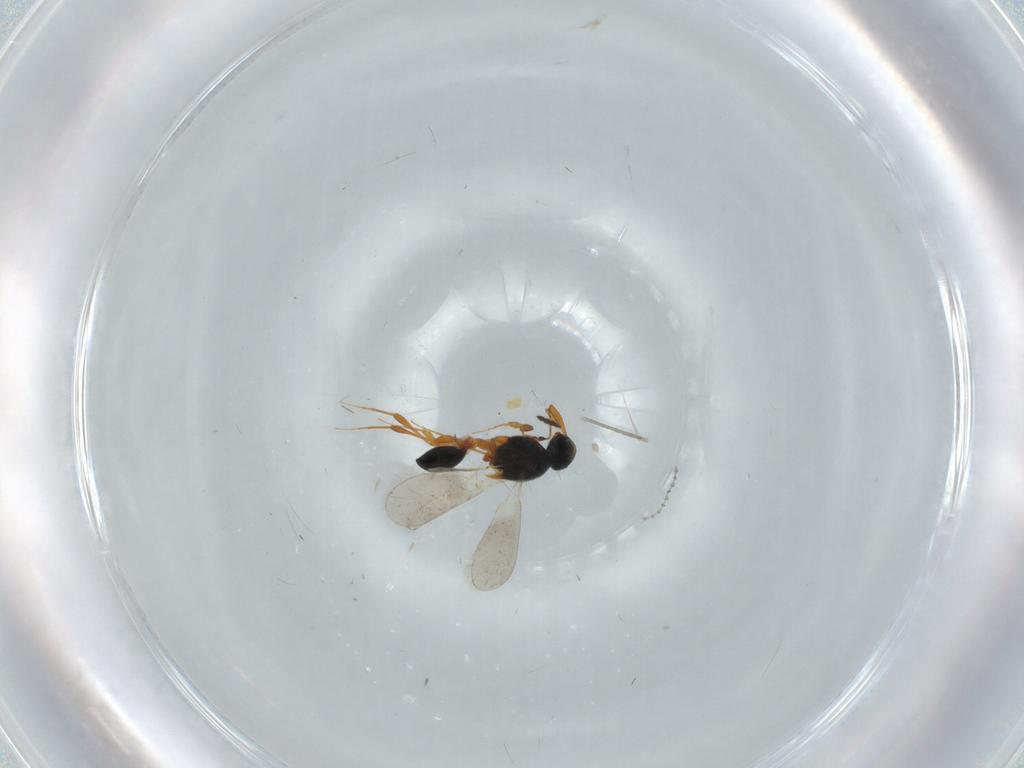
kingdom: Animalia
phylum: Arthropoda
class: Insecta
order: Hymenoptera
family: Platygastridae
